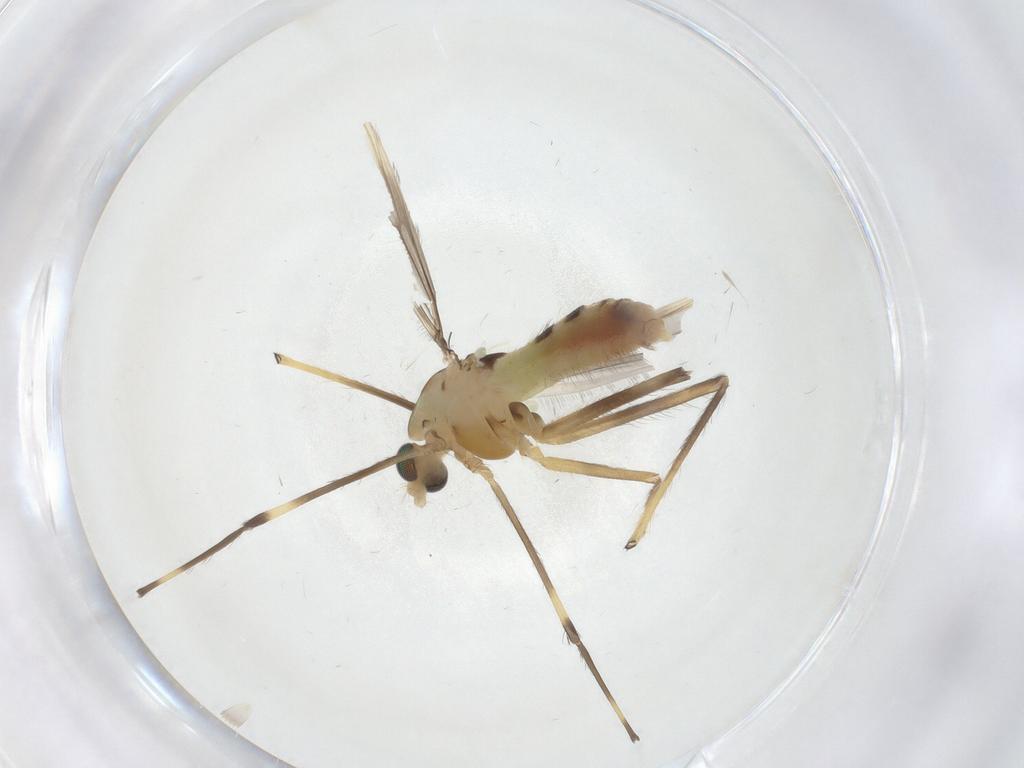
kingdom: Animalia
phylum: Arthropoda
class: Insecta
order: Diptera
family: Chironomidae
